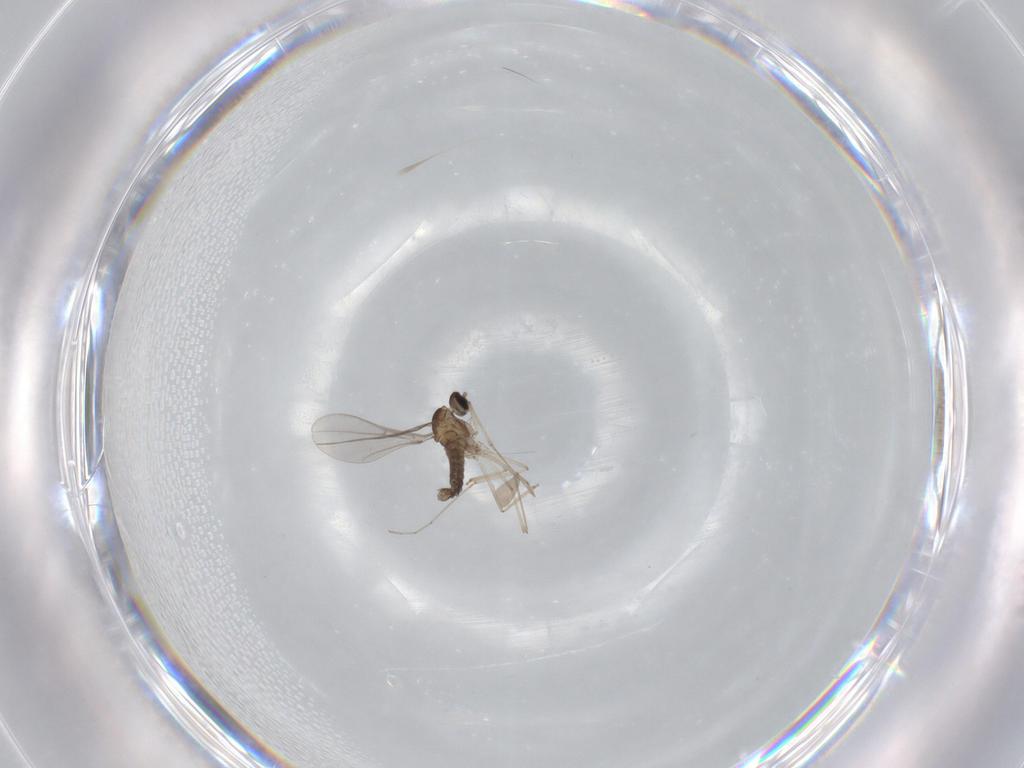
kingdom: Animalia
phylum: Arthropoda
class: Insecta
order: Diptera
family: Cecidomyiidae
